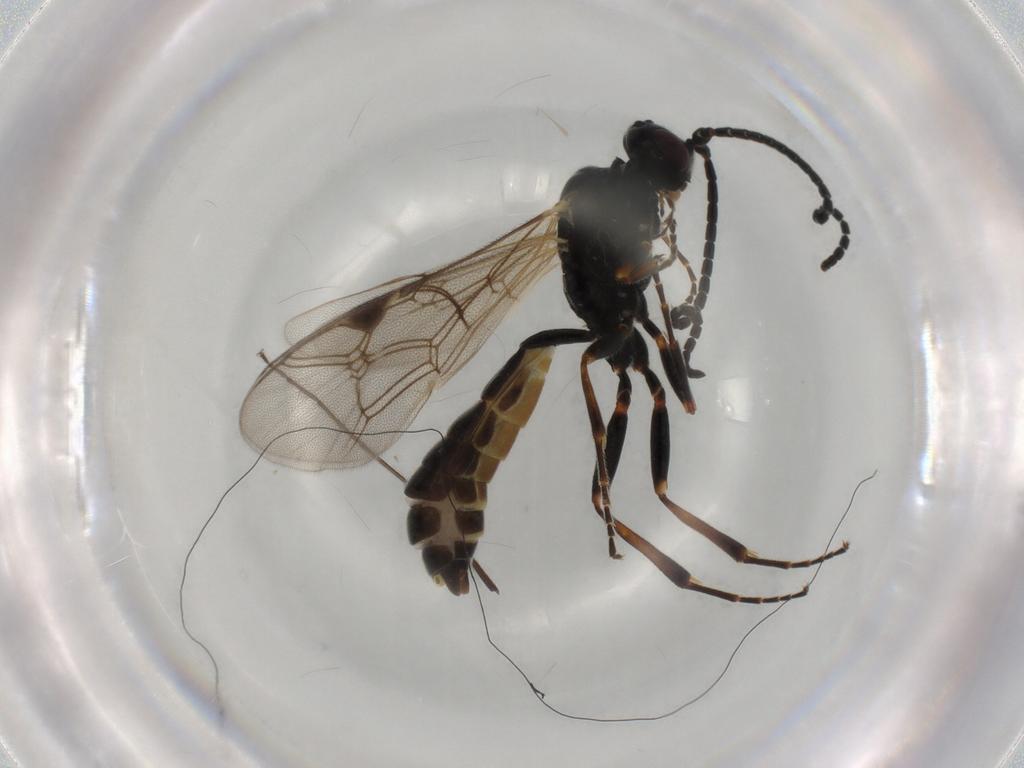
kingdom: Animalia
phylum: Arthropoda
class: Insecta
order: Hymenoptera
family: Ichneumonidae
